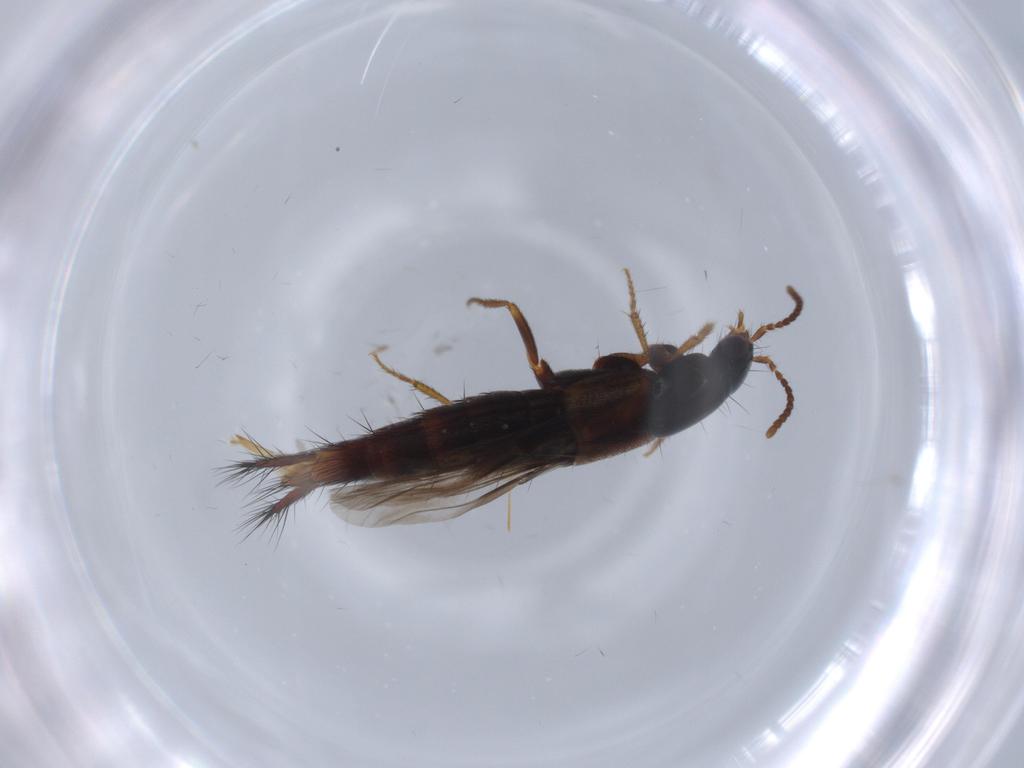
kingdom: Animalia
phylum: Arthropoda
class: Insecta
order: Coleoptera
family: Staphylinidae
